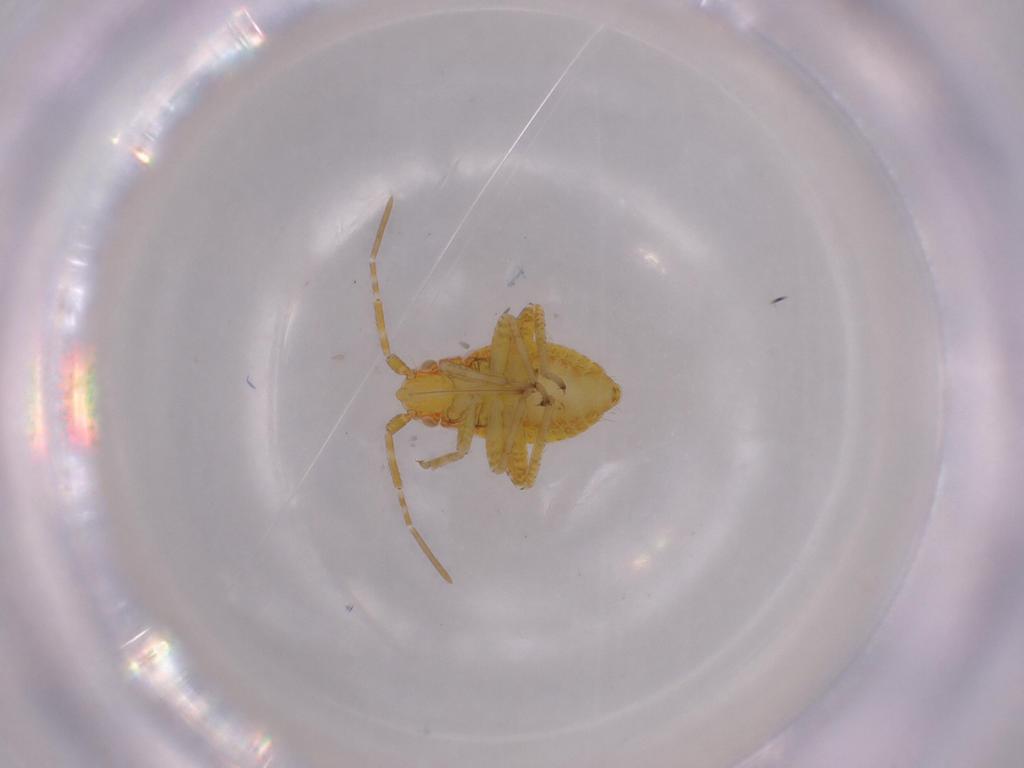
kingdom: Animalia
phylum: Arthropoda
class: Insecta
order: Hemiptera
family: Miridae
